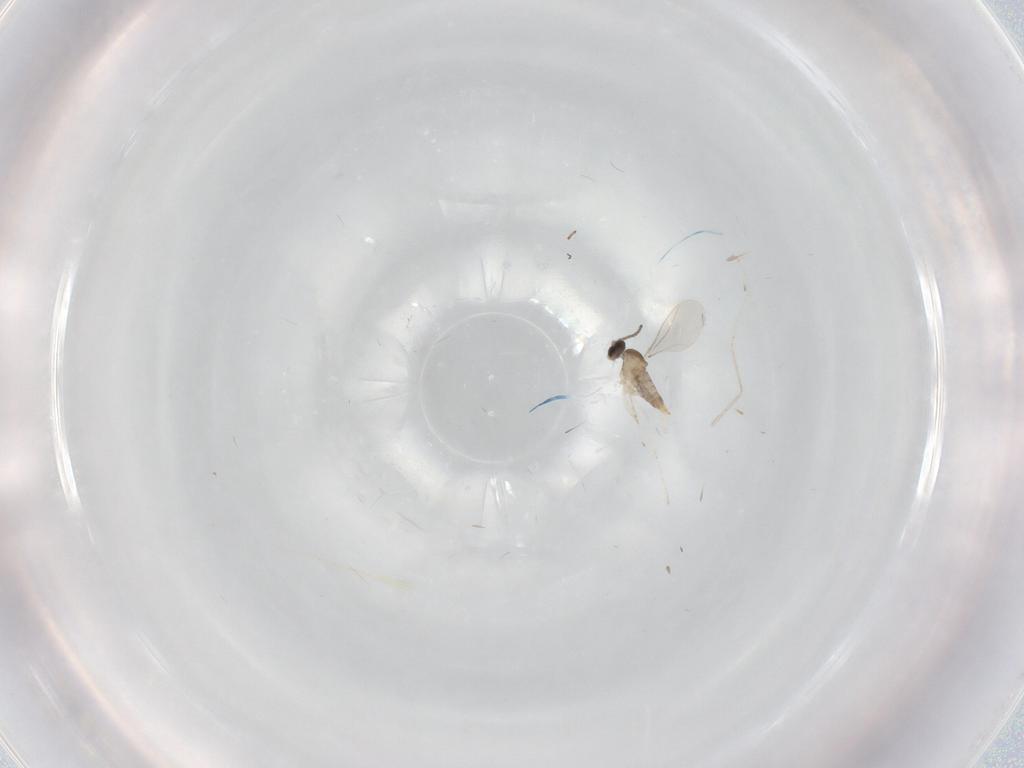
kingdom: Animalia
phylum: Arthropoda
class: Insecta
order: Diptera
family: Cecidomyiidae
